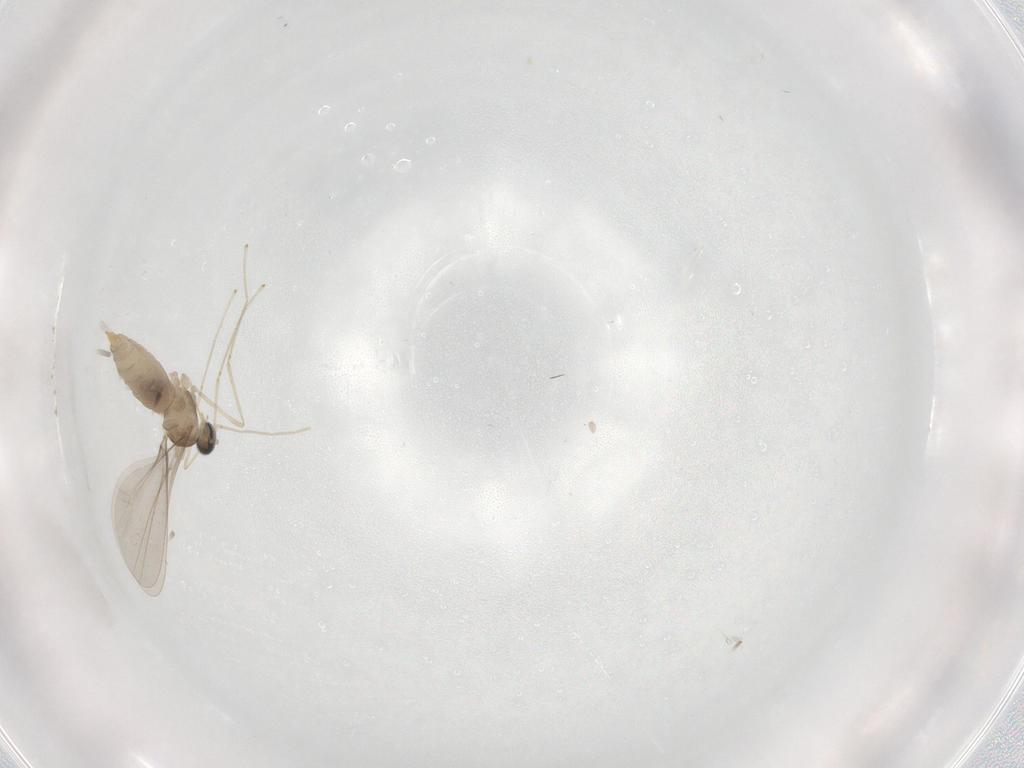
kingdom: Animalia
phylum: Arthropoda
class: Insecta
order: Diptera
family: Cecidomyiidae
